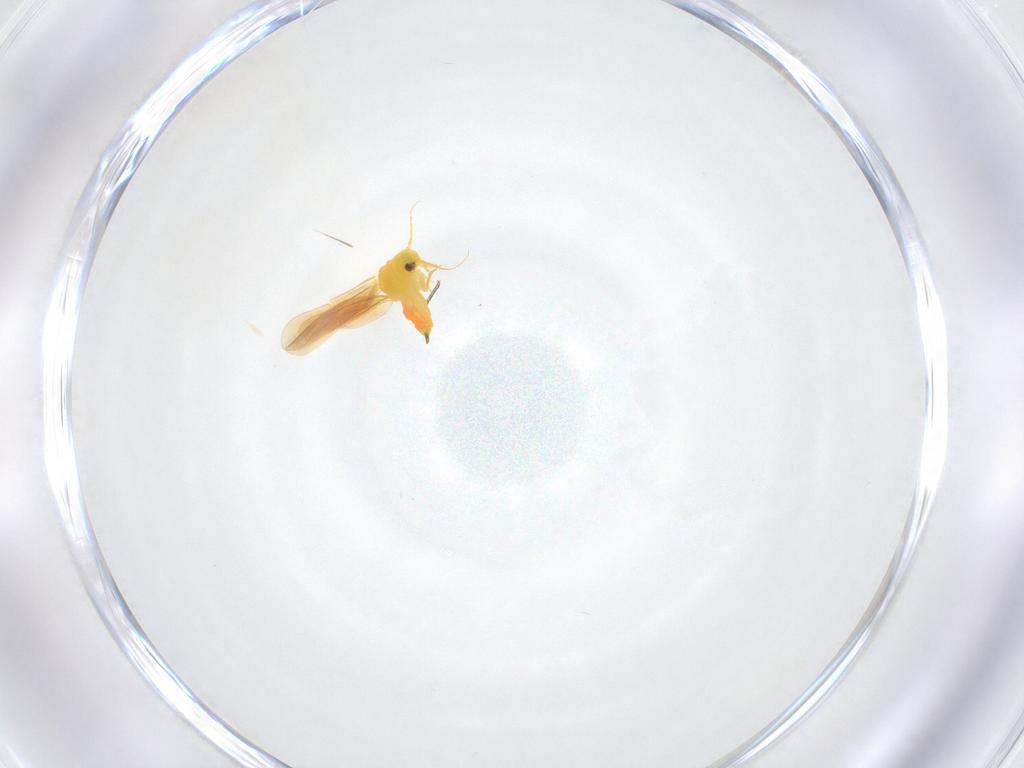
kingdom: Animalia
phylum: Arthropoda
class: Insecta
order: Hemiptera
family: Aleyrodidae
